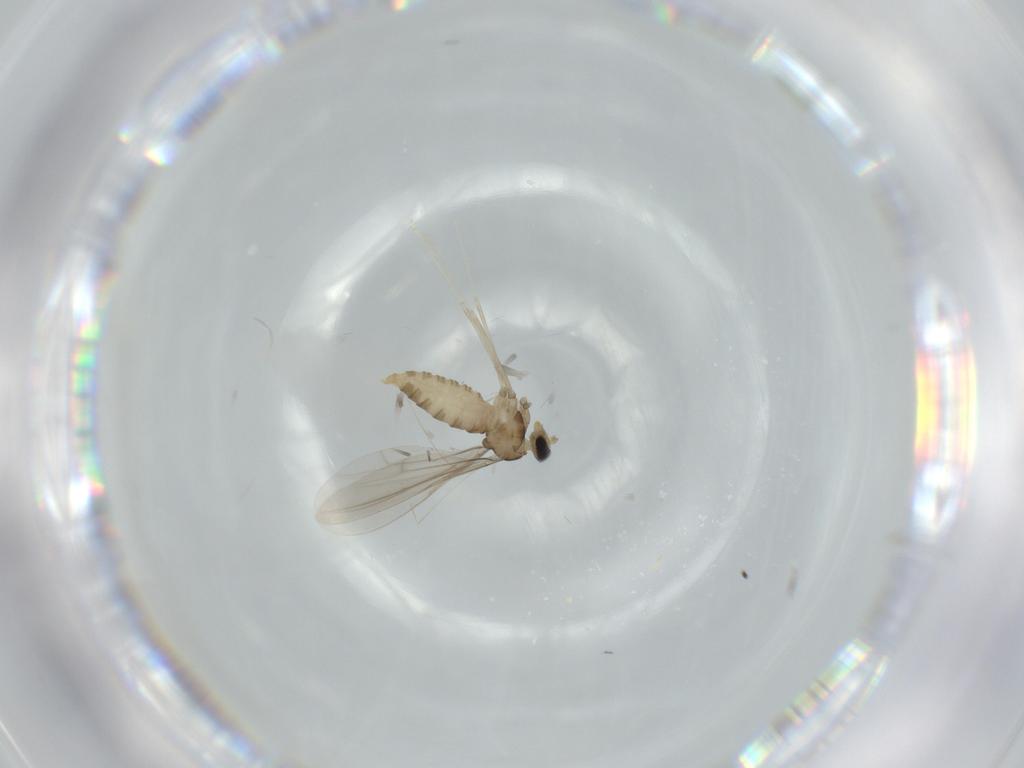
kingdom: Animalia
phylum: Arthropoda
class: Insecta
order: Diptera
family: Cecidomyiidae
